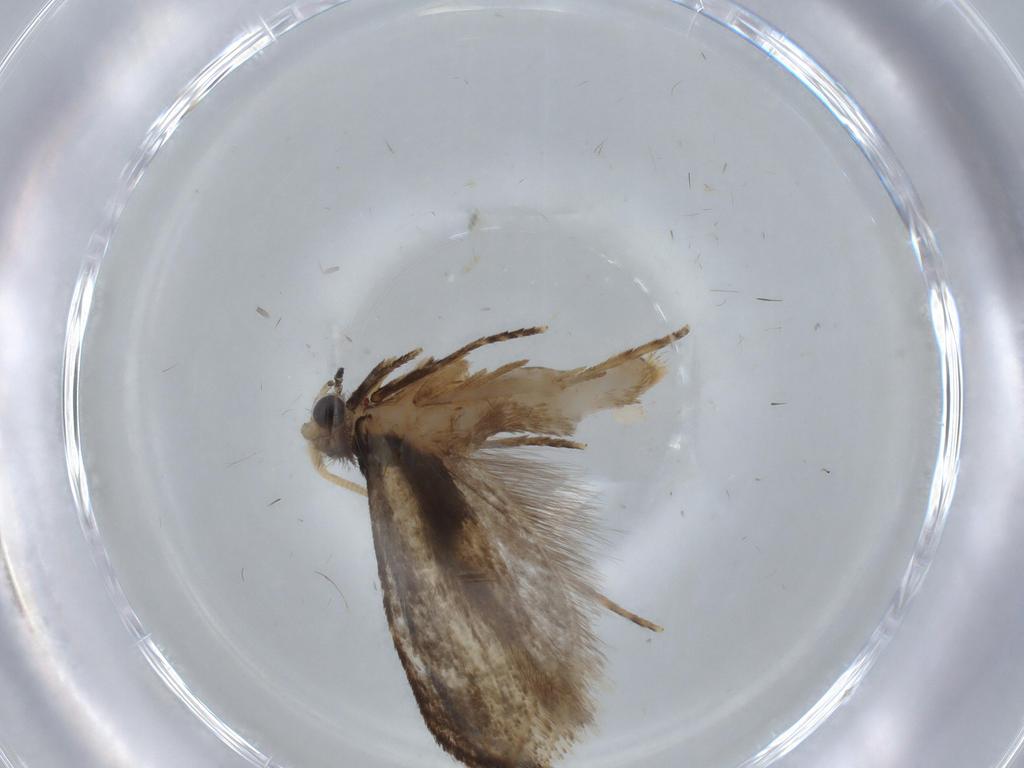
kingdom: Animalia
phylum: Arthropoda
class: Insecta
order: Lepidoptera
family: Tineidae
